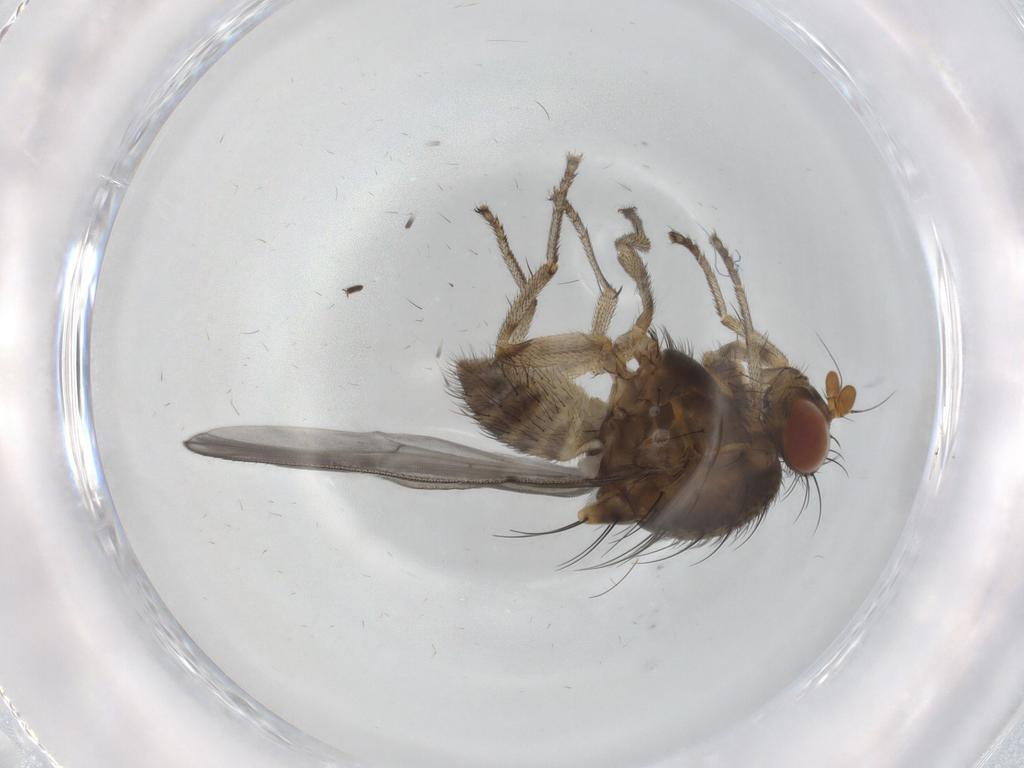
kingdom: Animalia
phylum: Arthropoda
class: Insecta
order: Diptera
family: Lauxaniidae
